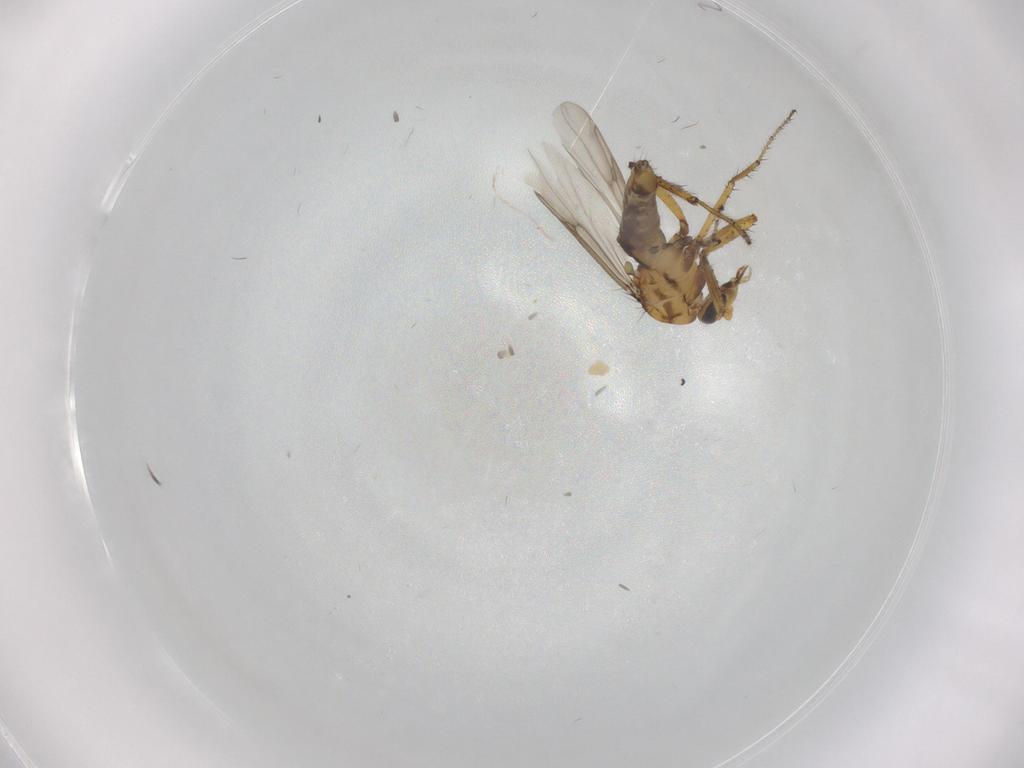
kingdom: Animalia
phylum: Arthropoda
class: Insecta
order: Diptera
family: Ceratopogonidae
